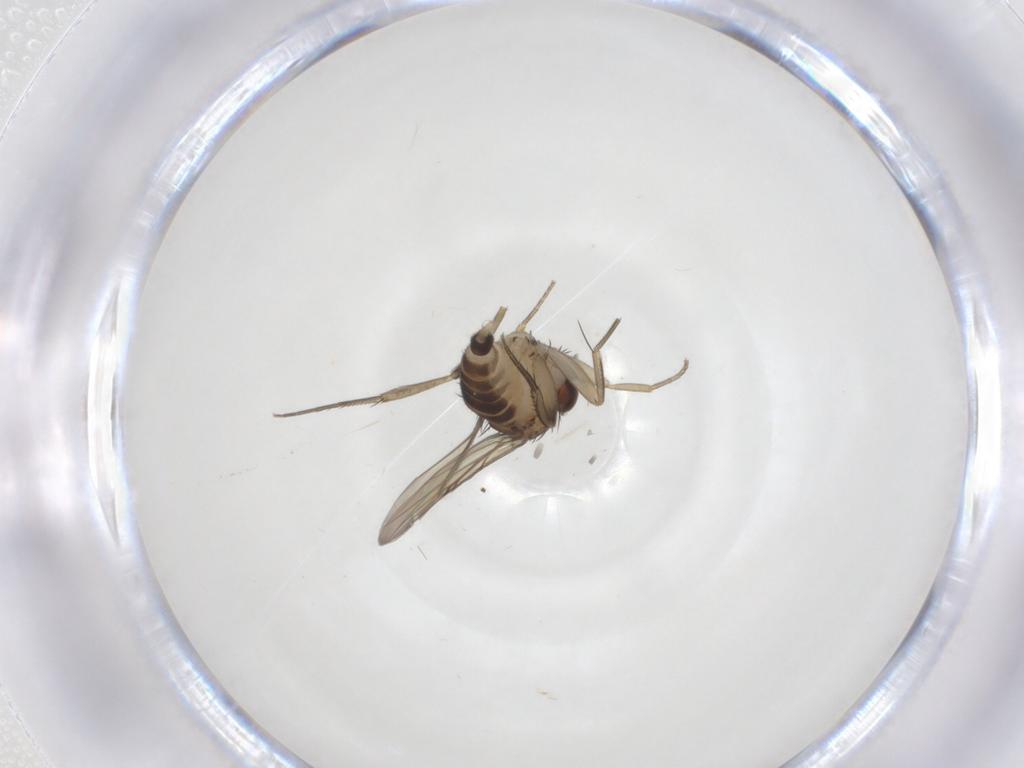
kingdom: Animalia
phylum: Arthropoda
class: Insecta
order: Diptera
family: Phoridae
